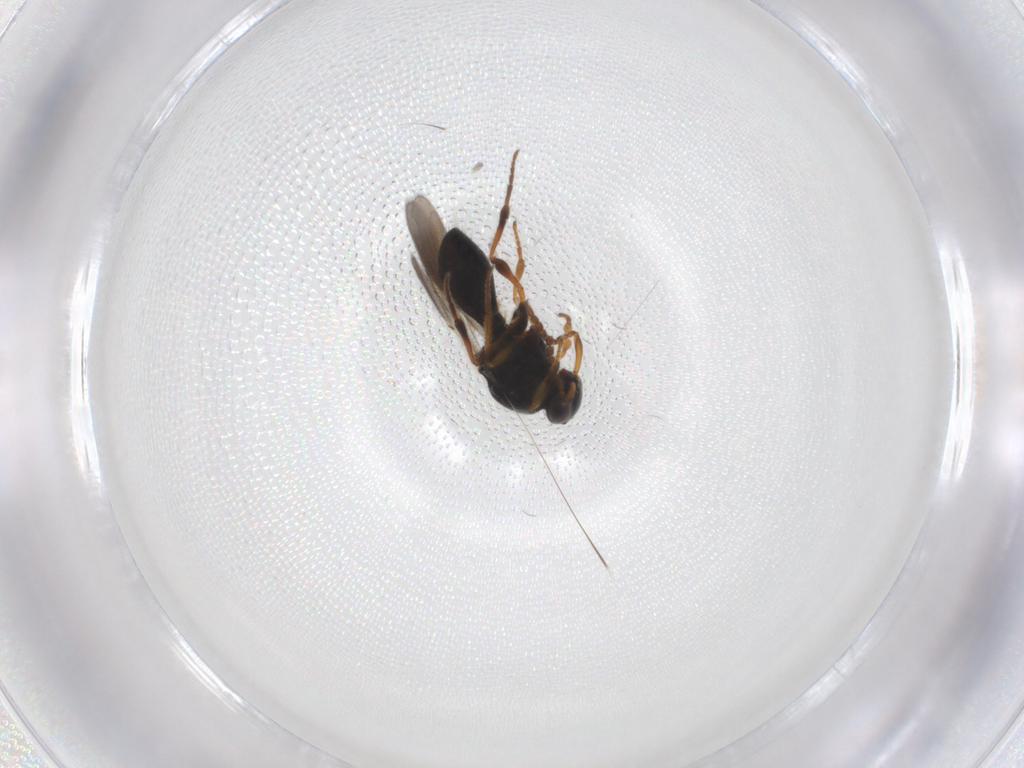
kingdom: Animalia
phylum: Arthropoda
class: Insecta
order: Hymenoptera
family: Platygastridae
